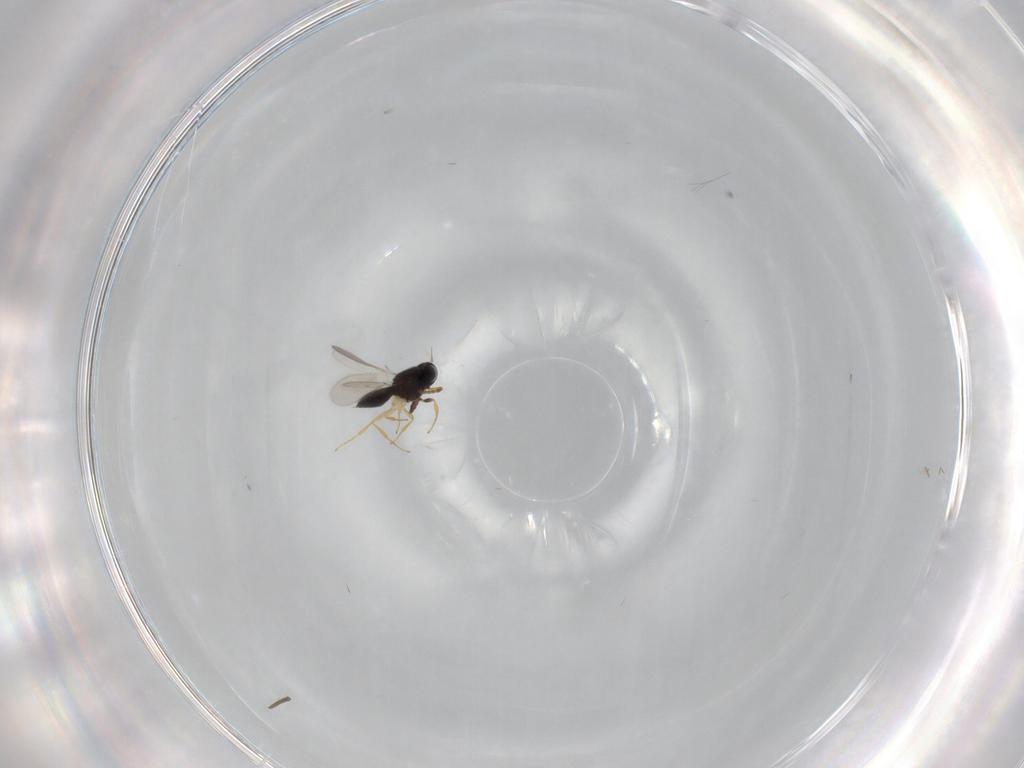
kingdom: Animalia
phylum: Arthropoda
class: Insecta
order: Hymenoptera
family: Scelionidae
